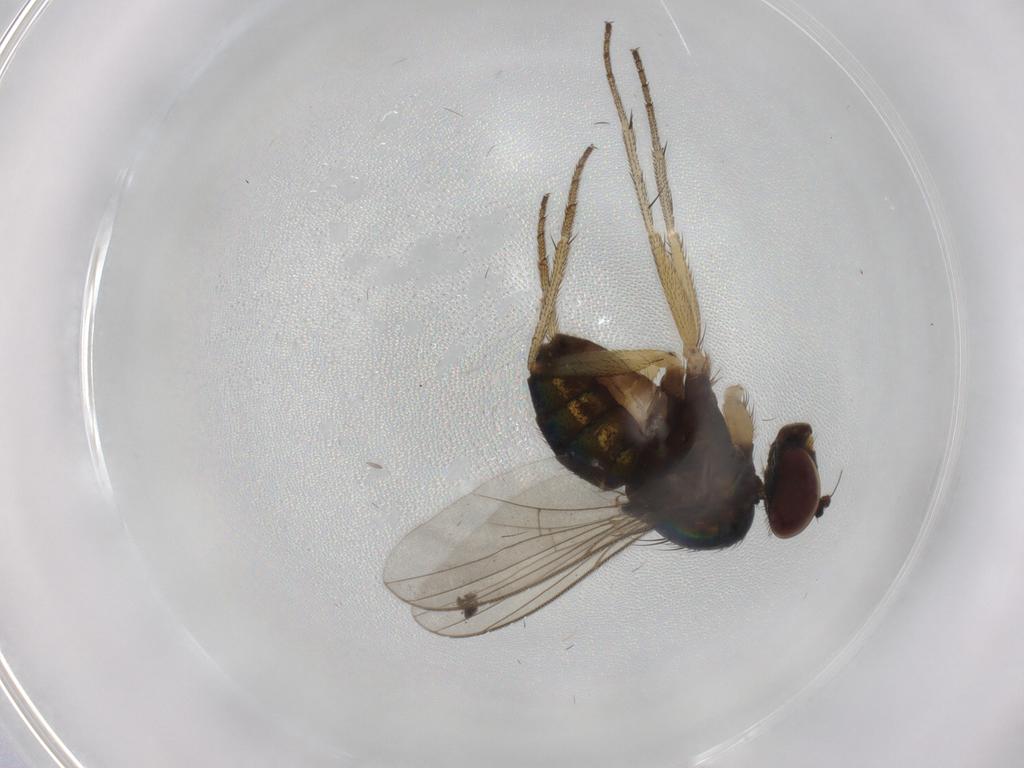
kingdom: Animalia
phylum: Arthropoda
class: Insecta
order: Diptera
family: Dolichopodidae
